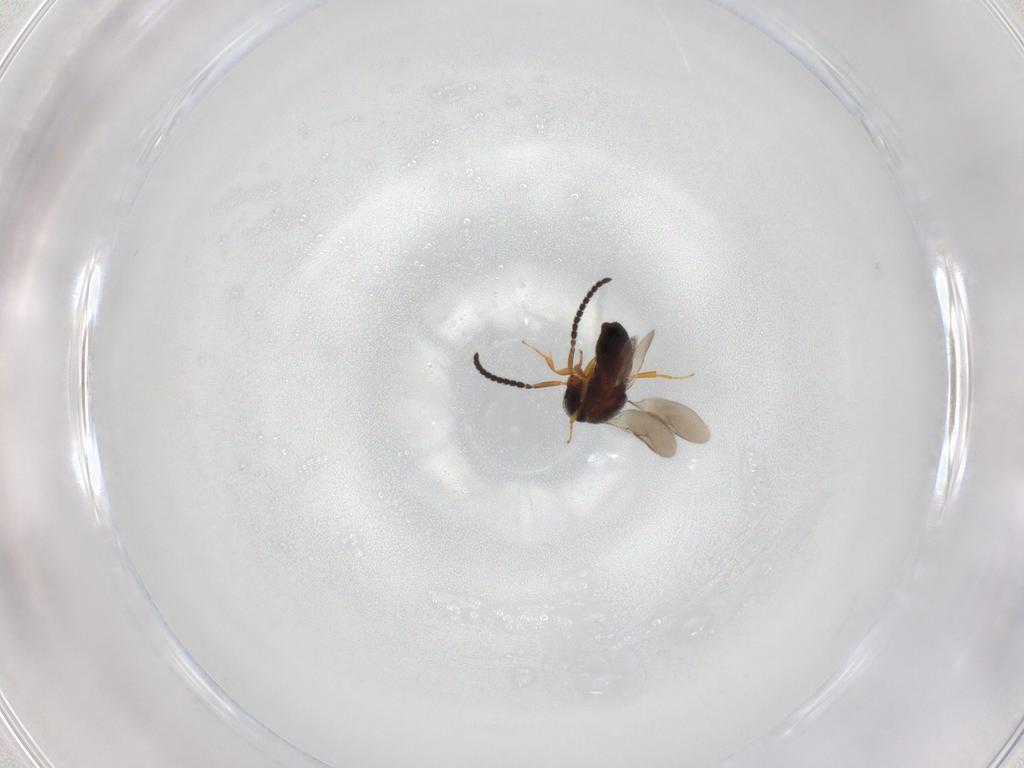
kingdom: Animalia
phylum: Arthropoda
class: Insecta
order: Hymenoptera
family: Scelionidae
